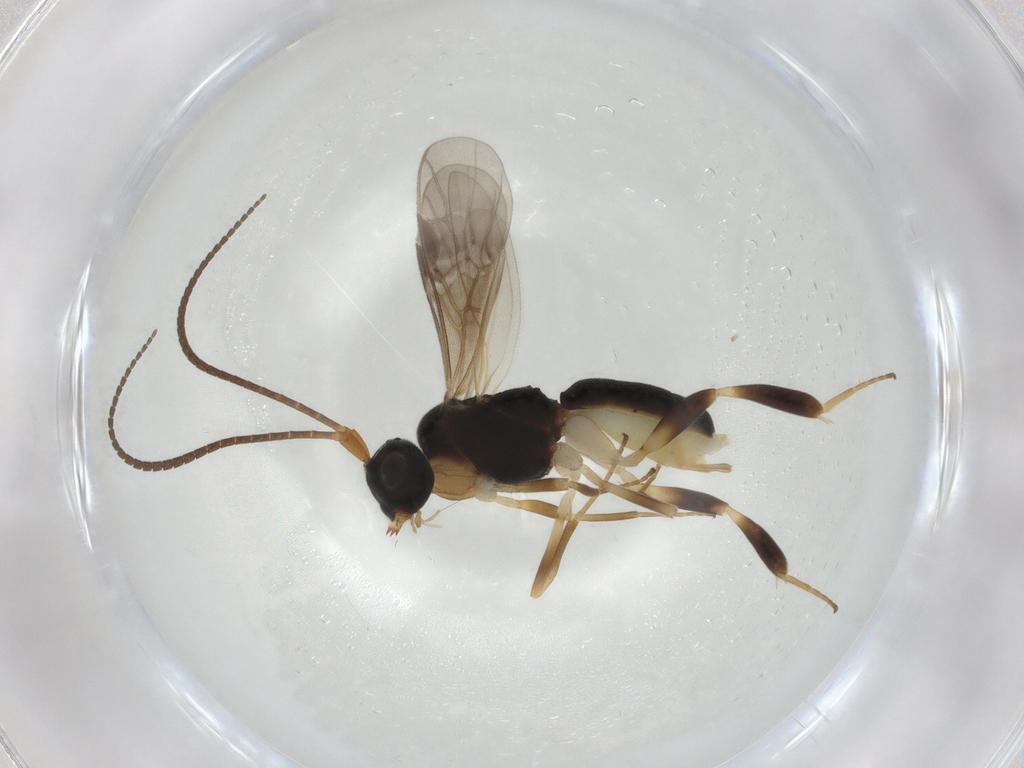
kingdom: Animalia
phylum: Arthropoda
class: Insecta
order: Hymenoptera
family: Braconidae
